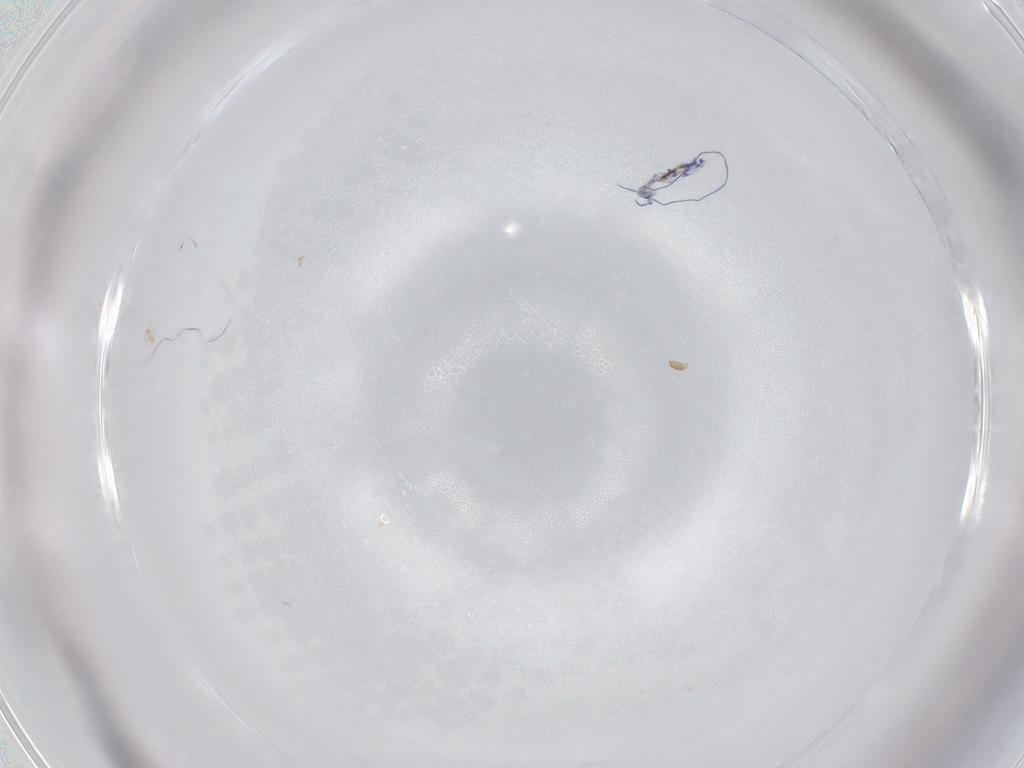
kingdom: Animalia
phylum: Arthropoda
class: Collembola
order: Entomobryomorpha
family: Entomobryidae
